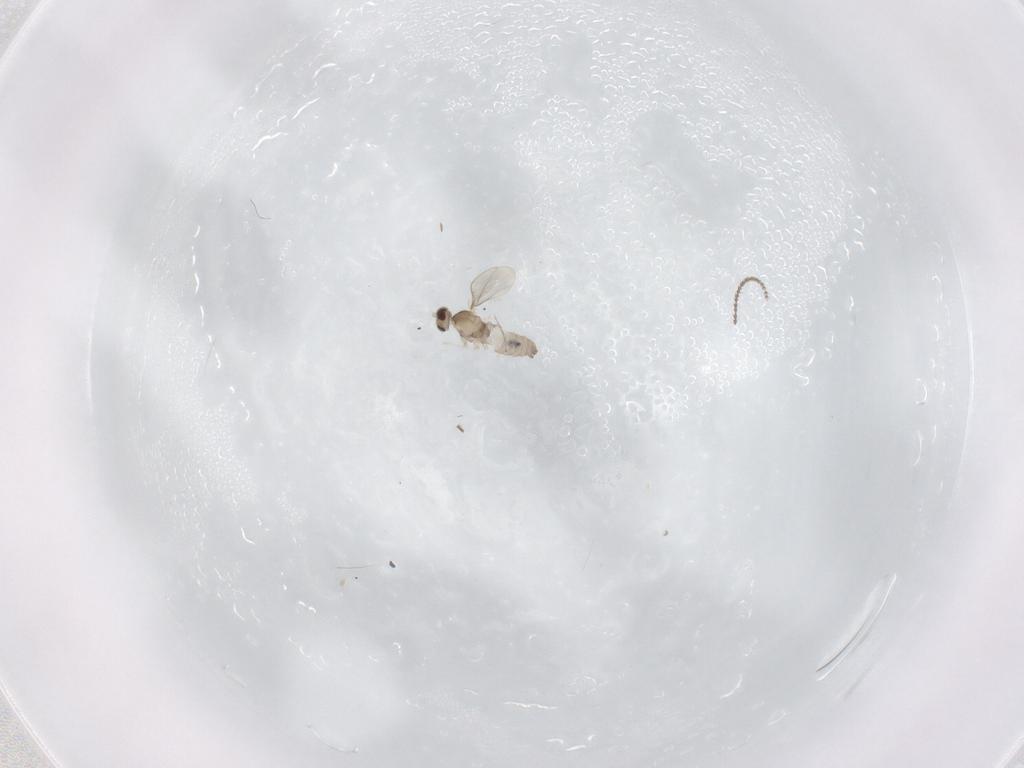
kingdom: Animalia
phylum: Arthropoda
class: Insecta
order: Diptera
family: Cecidomyiidae
